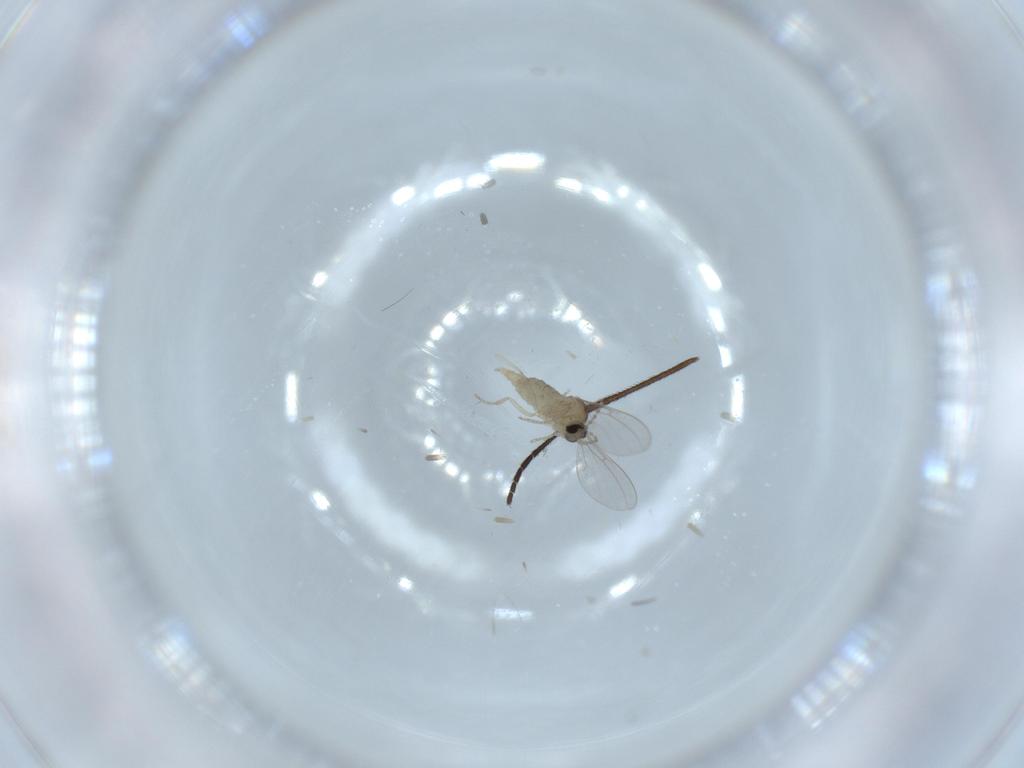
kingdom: Animalia
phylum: Arthropoda
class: Insecta
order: Diptera
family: Cecidomyiidae
